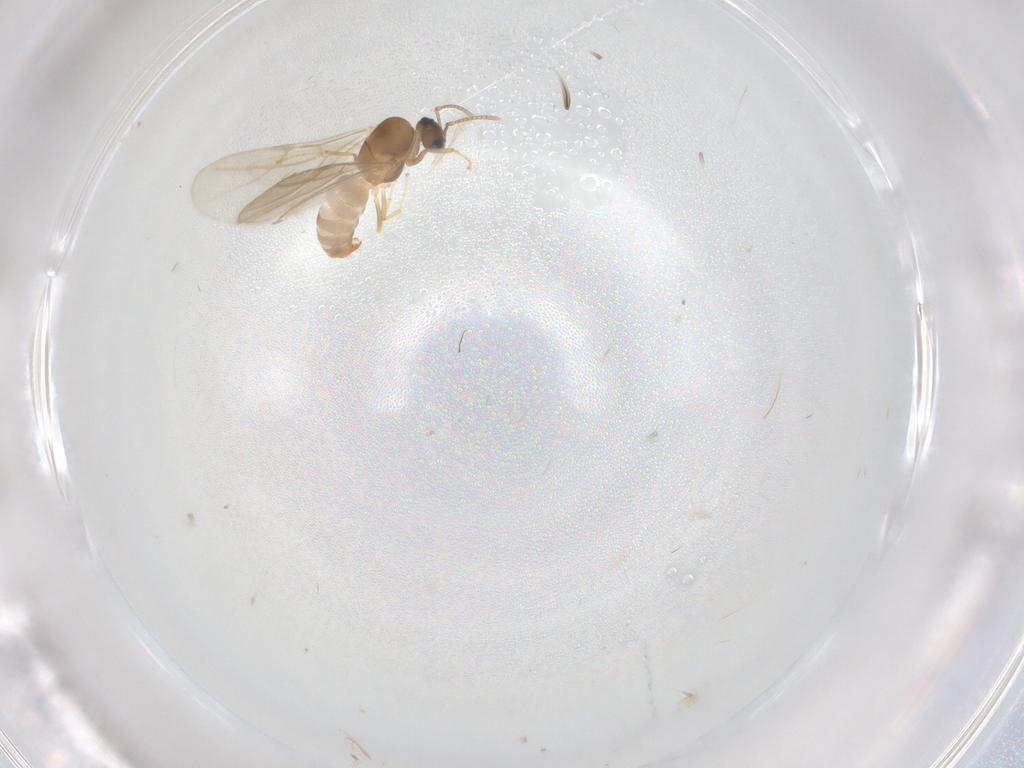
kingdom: Animalia
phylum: Arthropoda
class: Insecta
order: Hymenoptera
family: Formicidae
